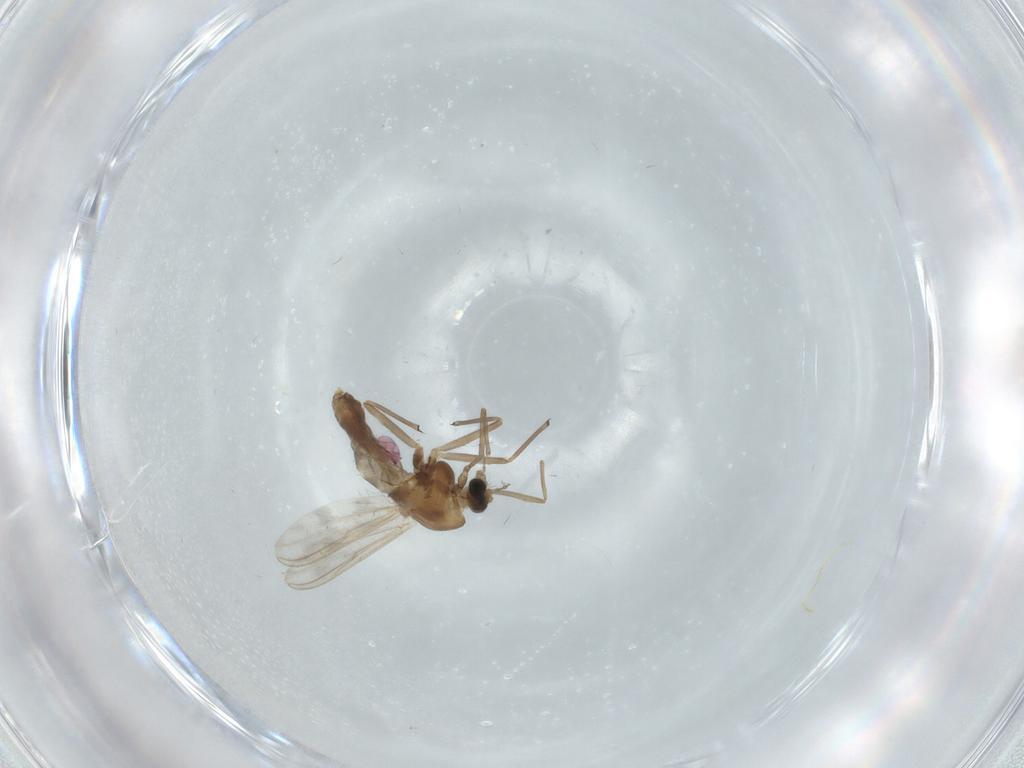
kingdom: Animalia
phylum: Arthropoda
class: Insecta
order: Diptera
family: Chironomidae
